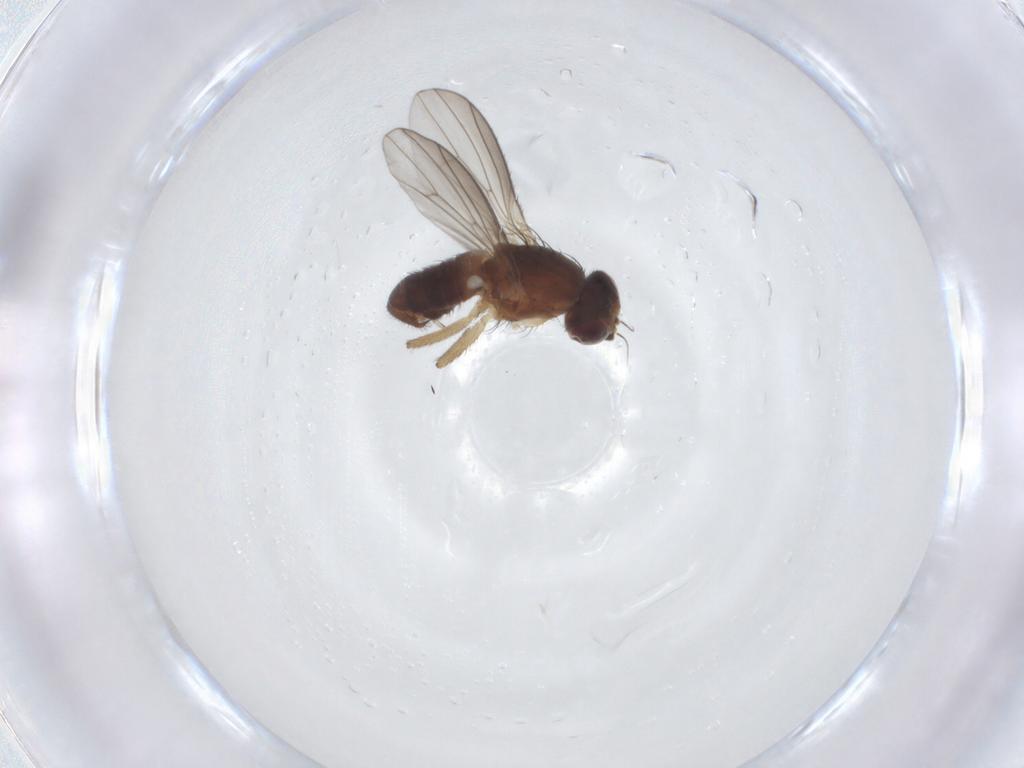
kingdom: Animalia
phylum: Arthropoda
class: Insecta
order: Diptera
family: Heleomyzidae
